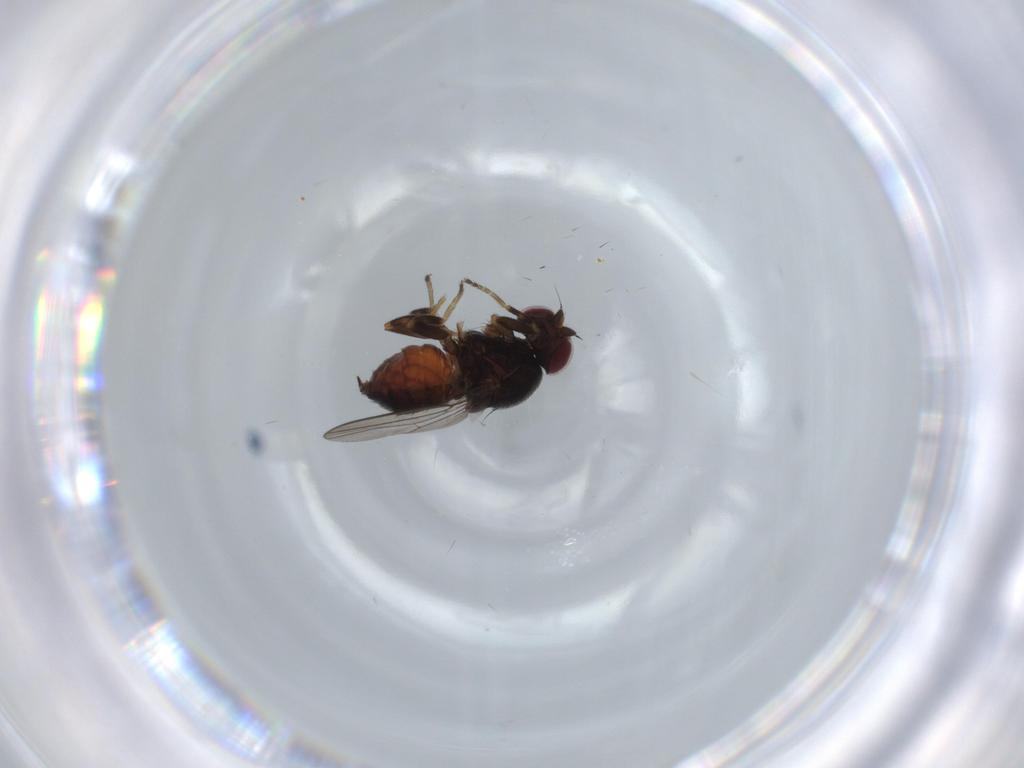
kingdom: Animalia
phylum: Arthropoda
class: Insecta
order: Diptera
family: Chloropidae
